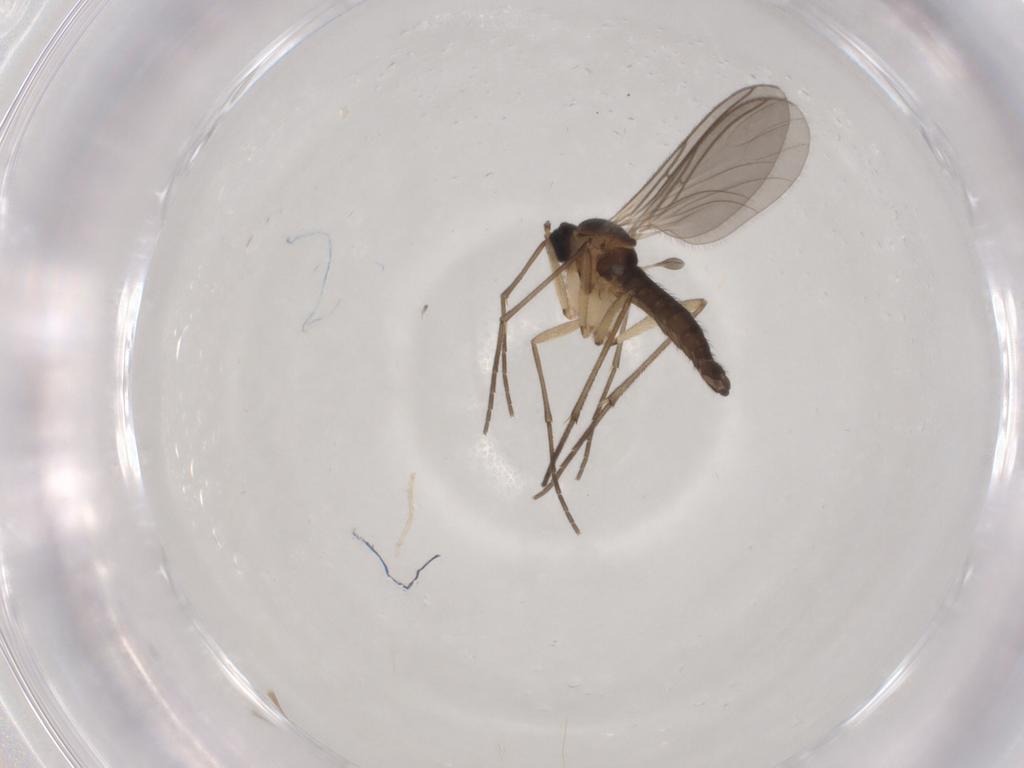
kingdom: Animalia
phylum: Arthropoda
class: Insecta
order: Diptera
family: Sciaridae
